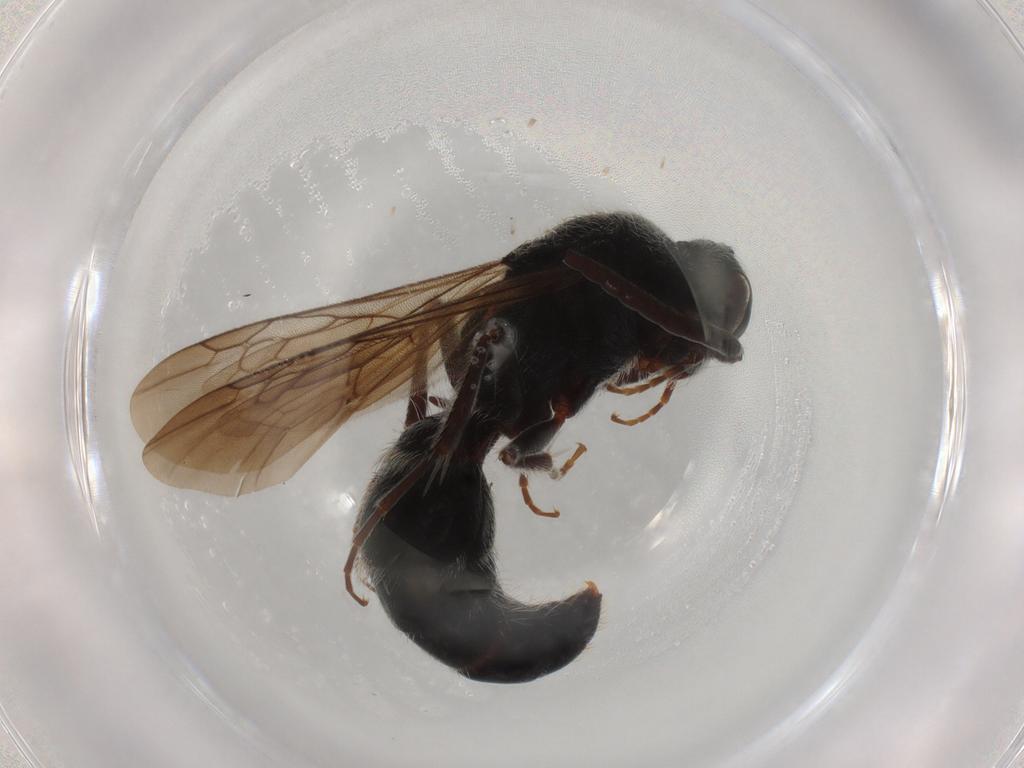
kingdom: Animalia
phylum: Arthropoda
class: Insecta
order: Hymenoptera
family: Mutillidae
